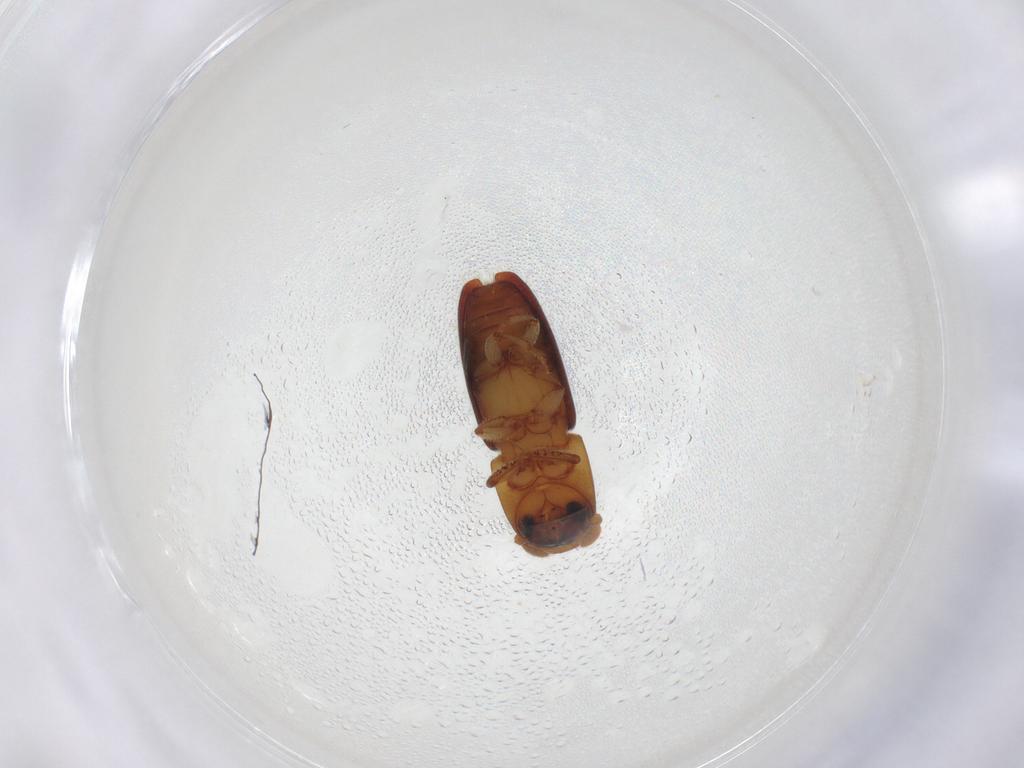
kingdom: Animalia
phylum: Arthropoda
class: Insecta
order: Coleoptera
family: Curculionidae
